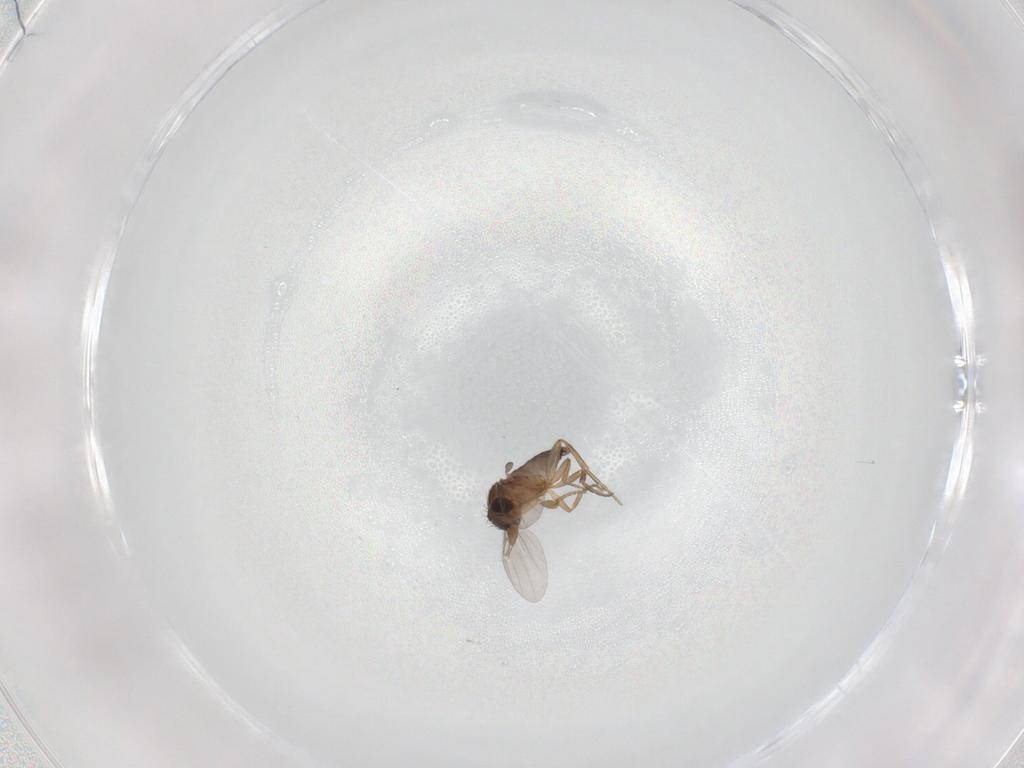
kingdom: Animalia
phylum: Arthropoda
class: Insecta
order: Diptera
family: Phoridae
